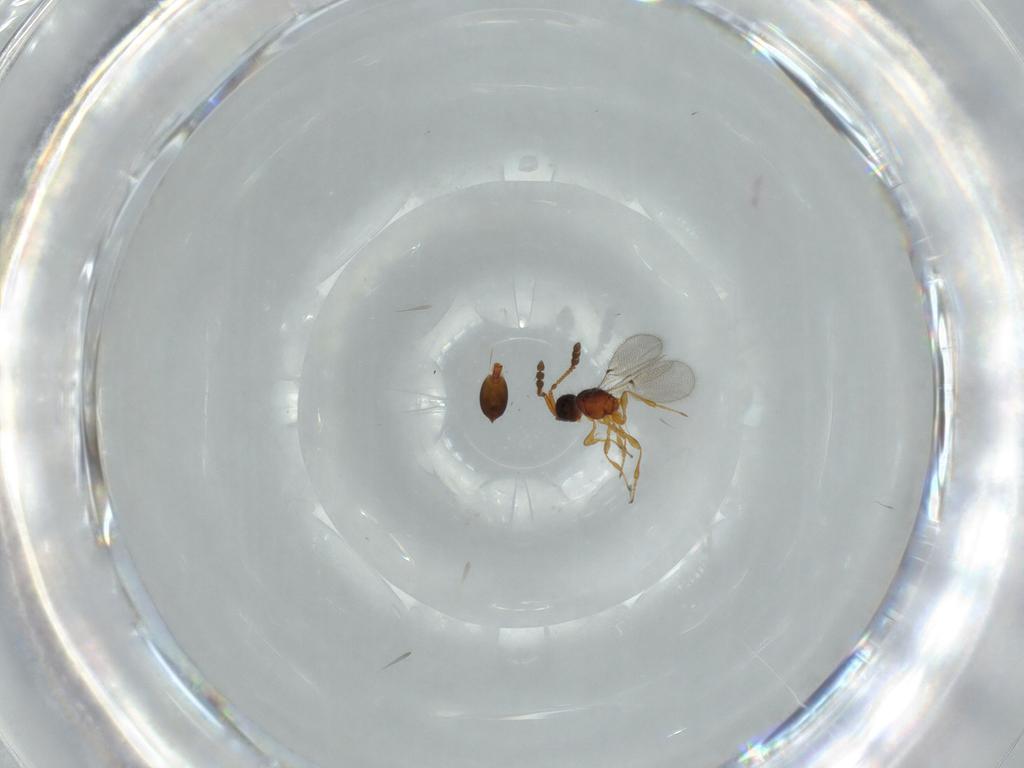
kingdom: Animalia
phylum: Arthropoda
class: Insecta
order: Hymenoptera
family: Diapriidae
